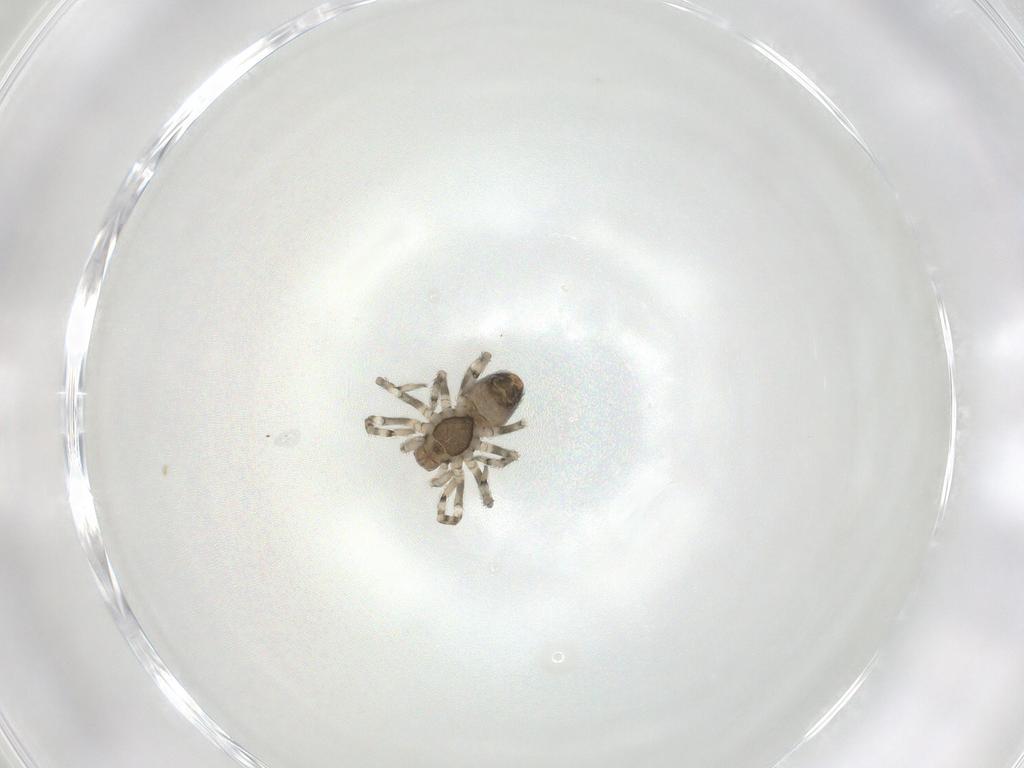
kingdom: Animalia
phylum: Arthropoda
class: Arachnida
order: Araneae
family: Dictynidae
